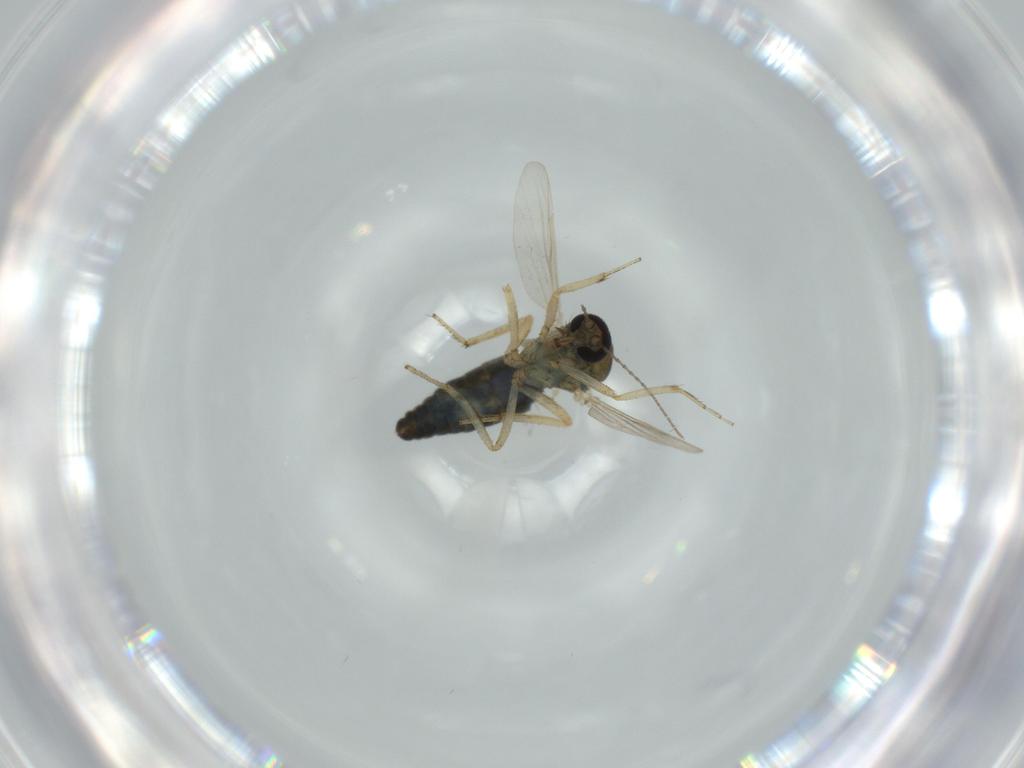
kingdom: Animalia
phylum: Arthropoda
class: Insecta
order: Diptera
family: Ceratopogonidae
